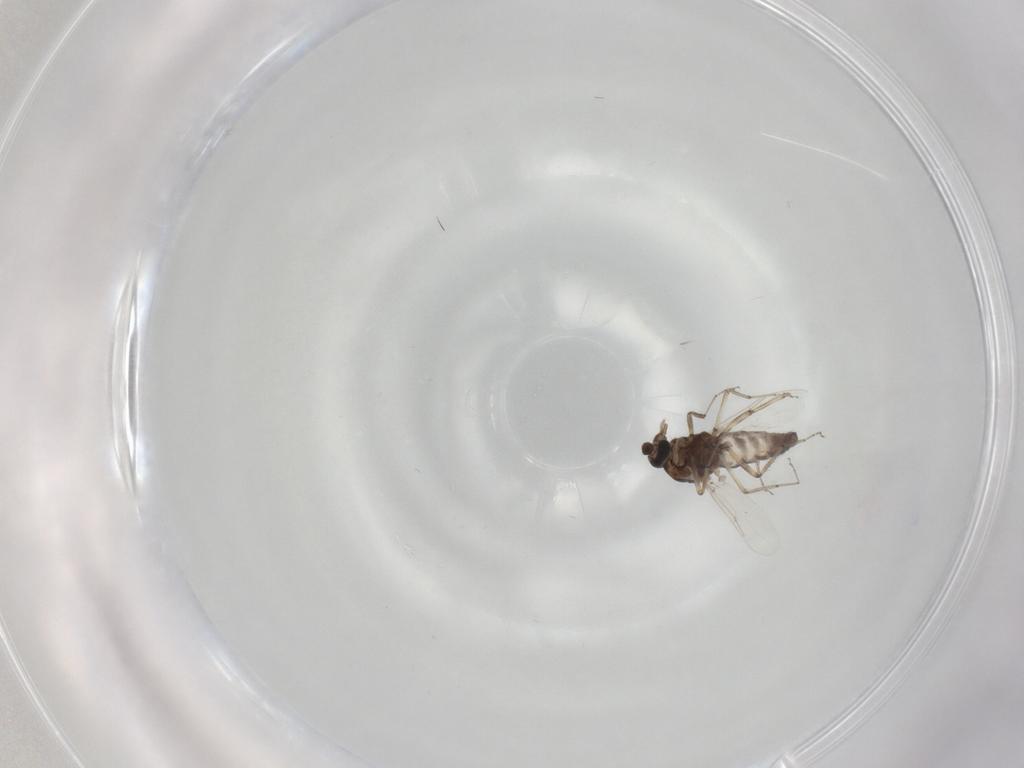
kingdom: Animalia
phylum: Arthropoda
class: Insecta
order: Diptera
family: Ceratopogonidae
